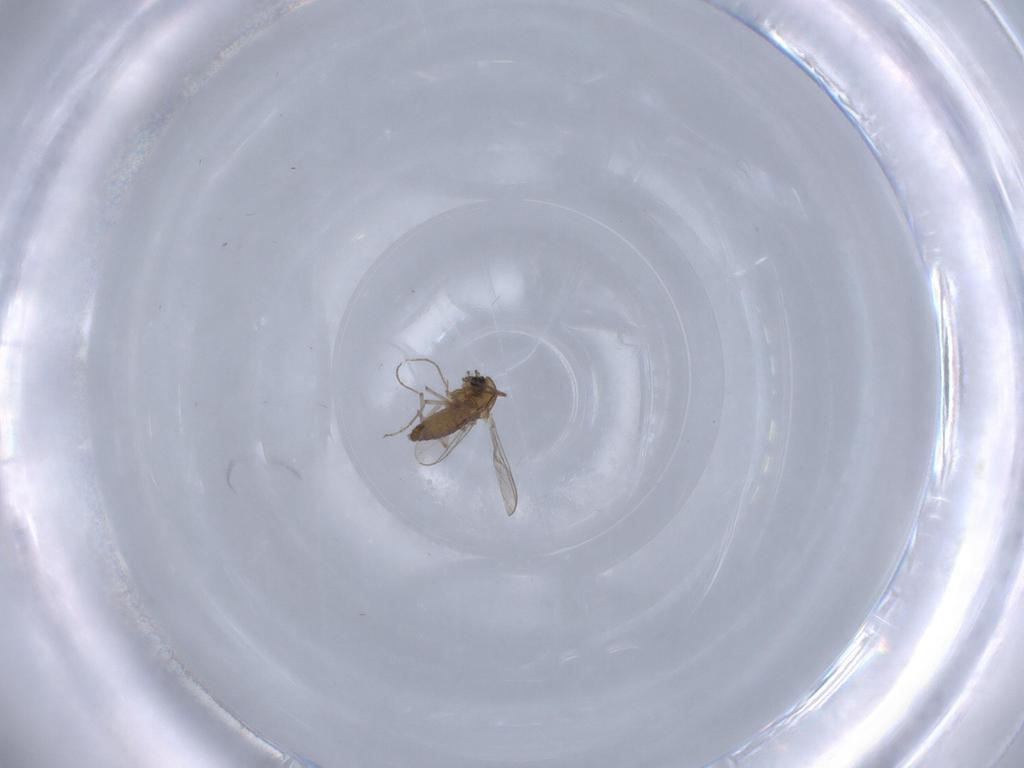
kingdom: Animalia
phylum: Arthropoda
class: Insecta
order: Diptera
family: Chironomidae
